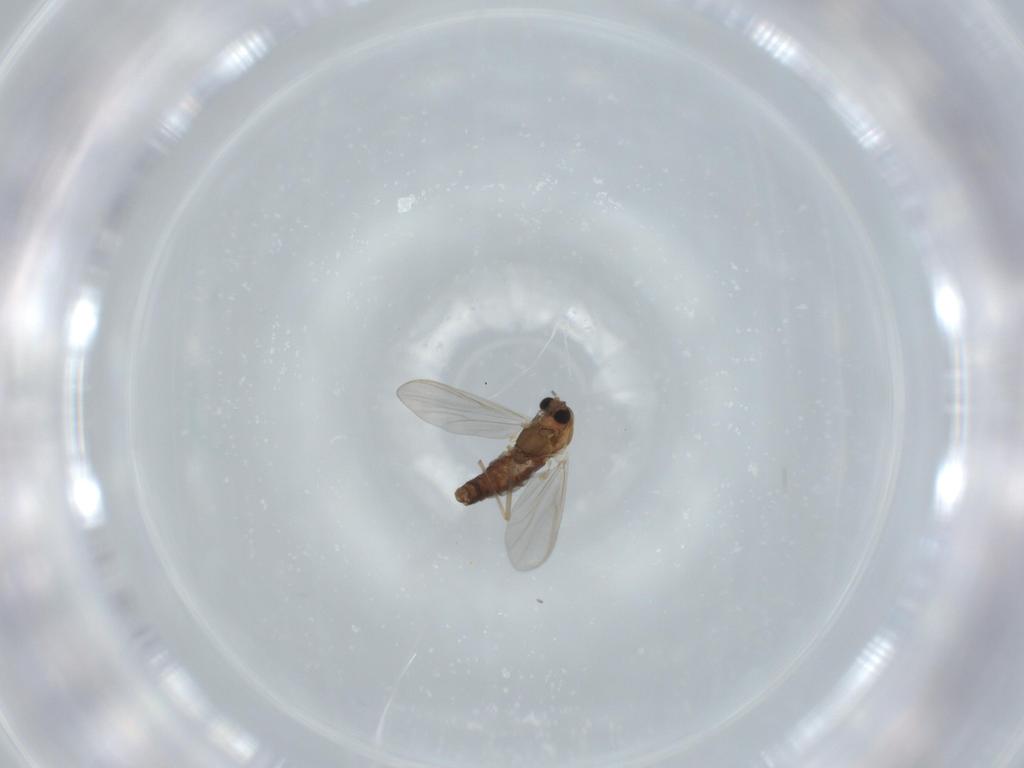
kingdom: Animalia
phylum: Arthropoda
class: Insecta
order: Diptera
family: Chironomidae
